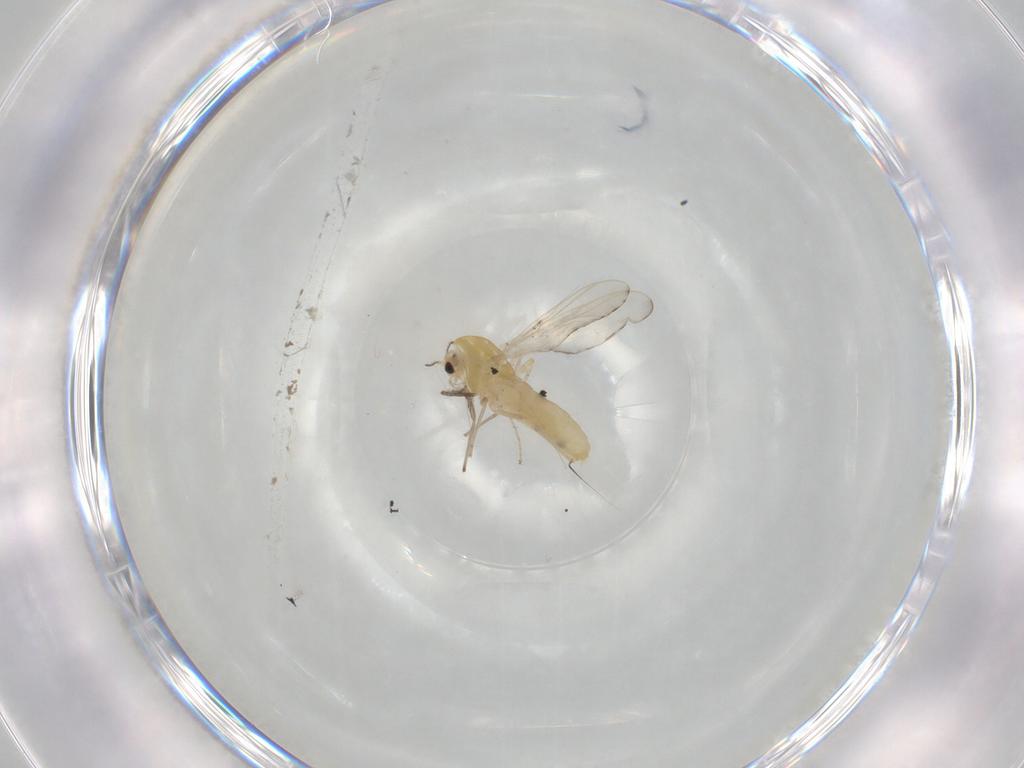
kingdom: Animalia
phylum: Arthropoda
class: Insecta
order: Diptera
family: Chironomidae
